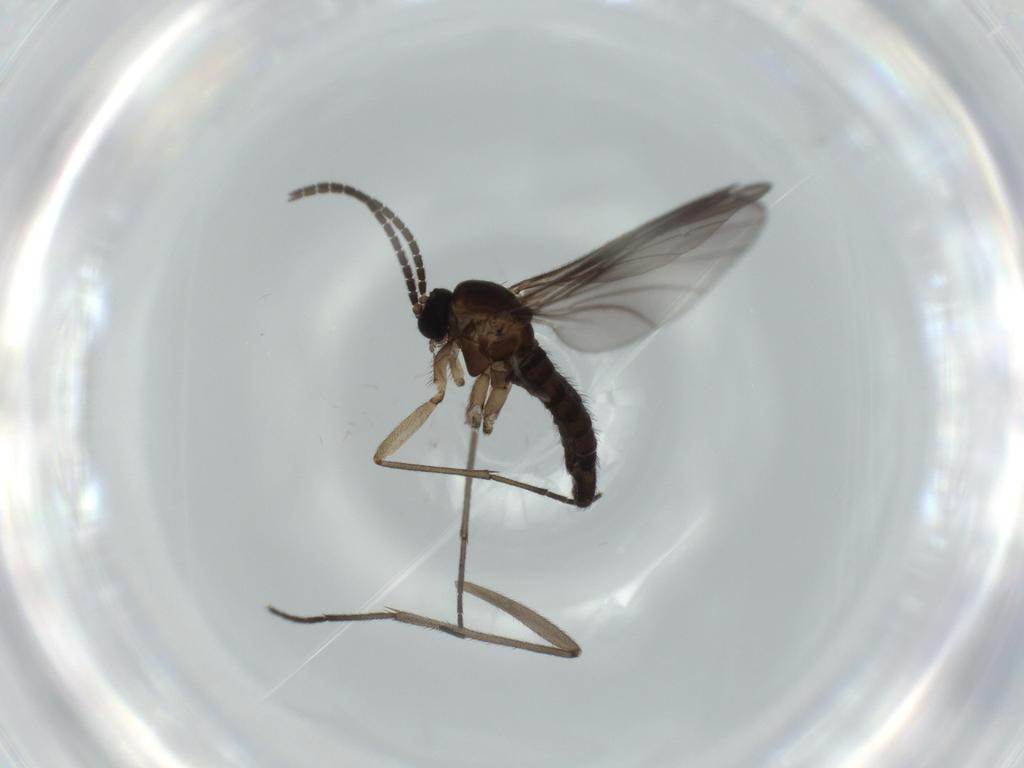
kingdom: Animalia
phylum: Arthropoda
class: Insecta
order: Diptera
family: Sciaridae
